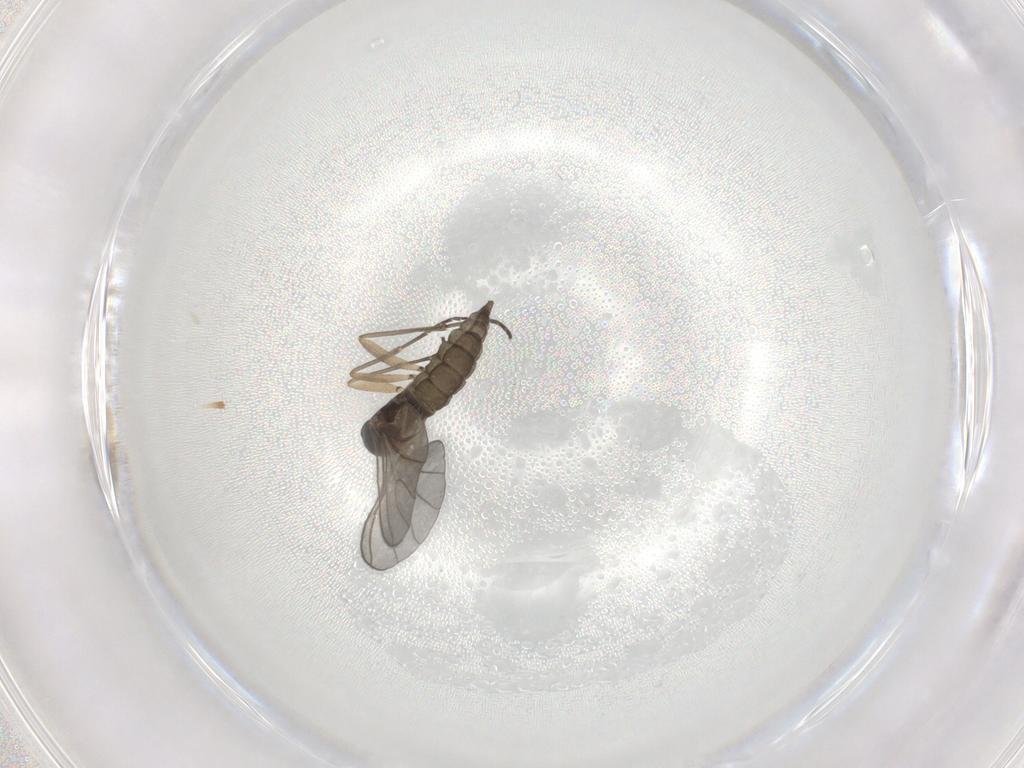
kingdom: Animalia
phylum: Arthropoda
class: Insecta
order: Diptera
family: Sciaridae
